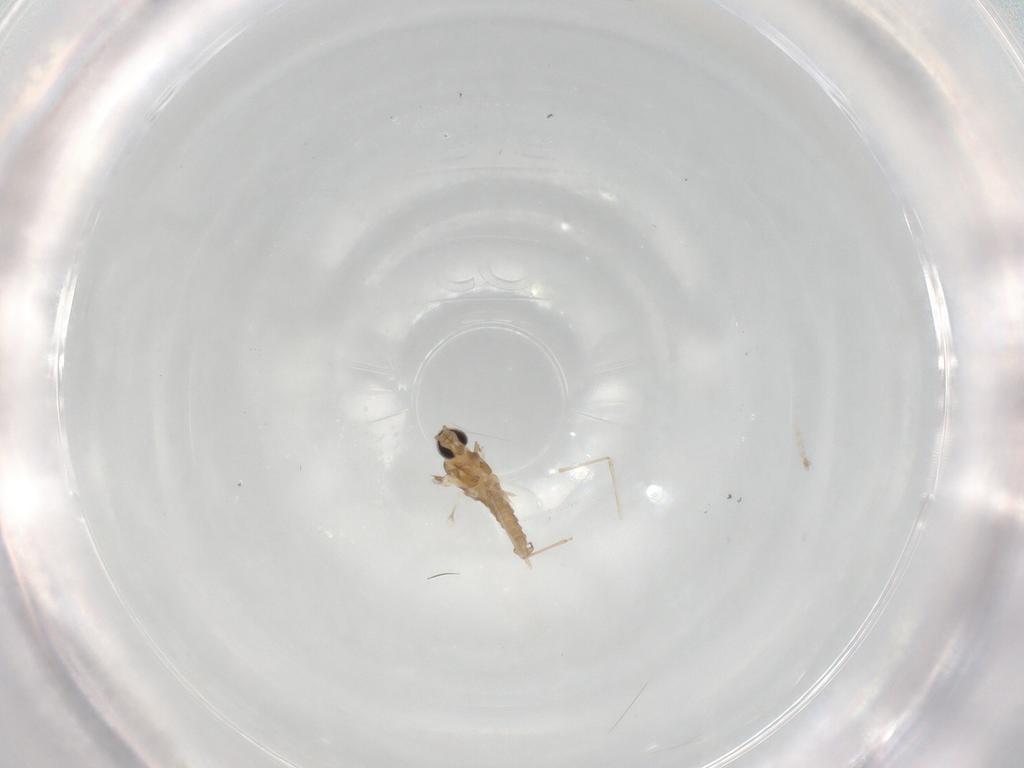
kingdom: Animalia
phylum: Arthropoda
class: Insecta
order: Diptera
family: Cecidomyiidae
